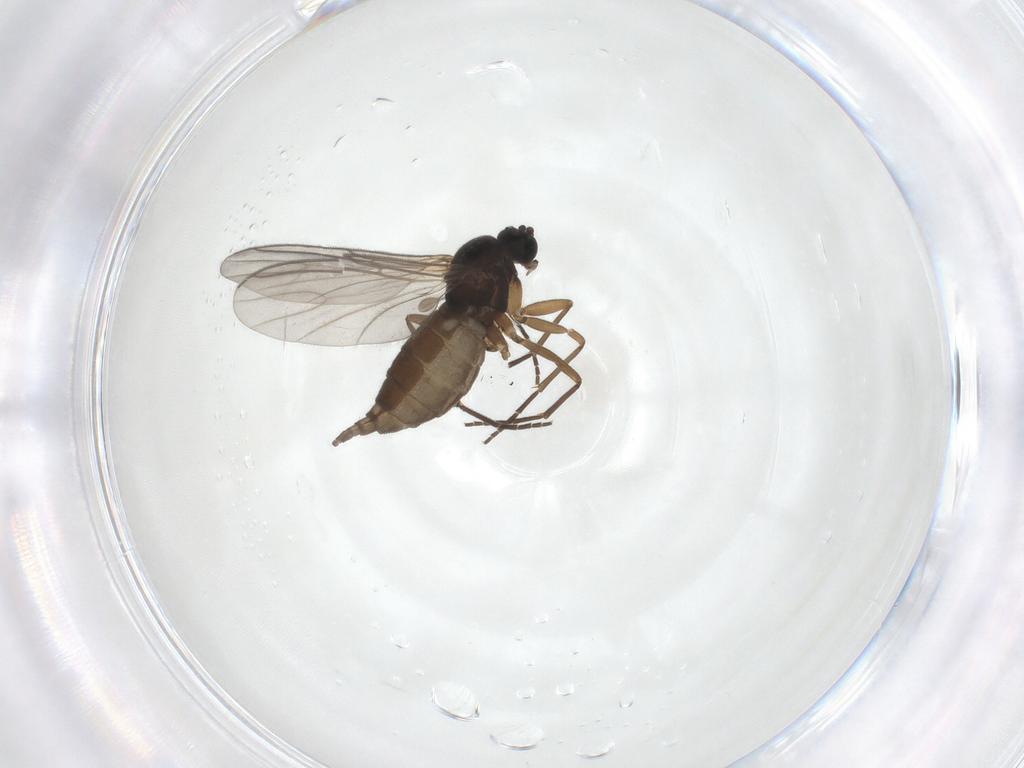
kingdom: Animalia
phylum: Arthropoda
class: Insecta
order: Diptera
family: Sciaridae
